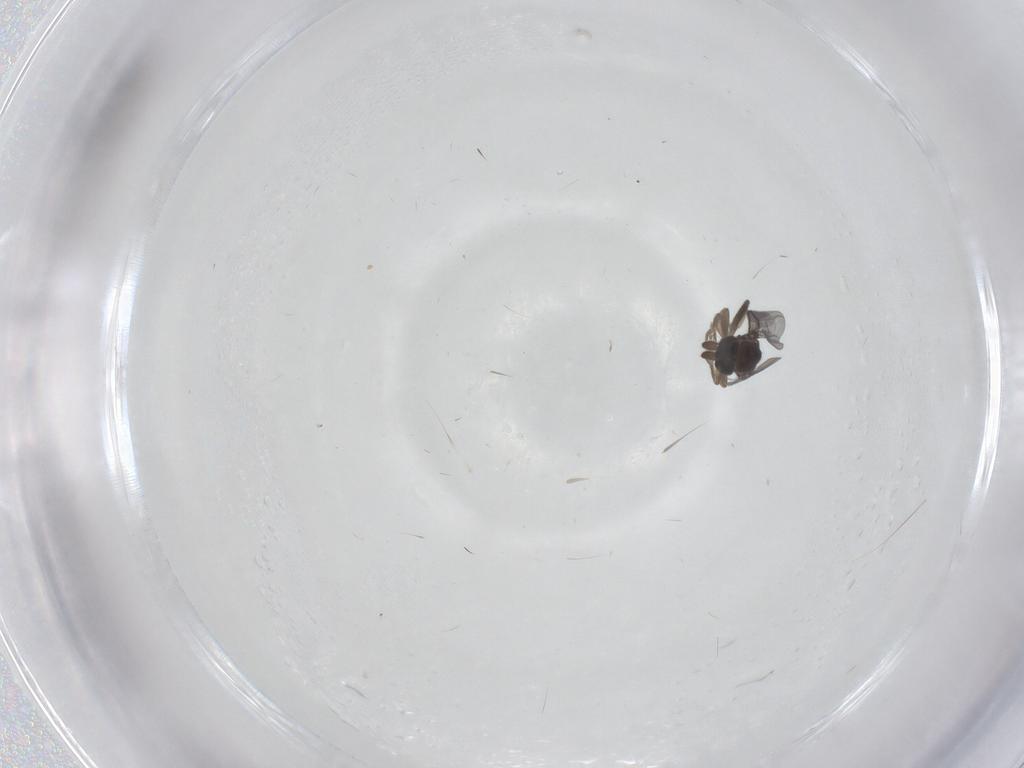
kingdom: Animalia
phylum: Arthropoda
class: Insecta
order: Diptera
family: Phoridae
